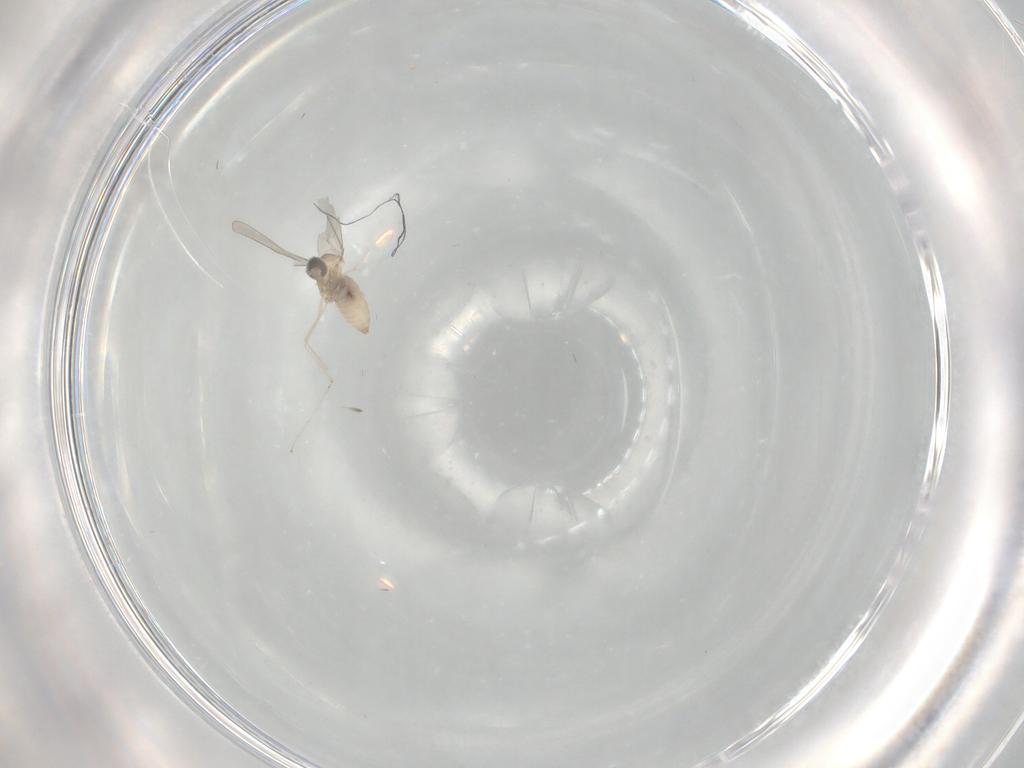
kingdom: Animalia
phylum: Arthropoda
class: Insecta
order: Diptera
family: Cecidomyiidae
